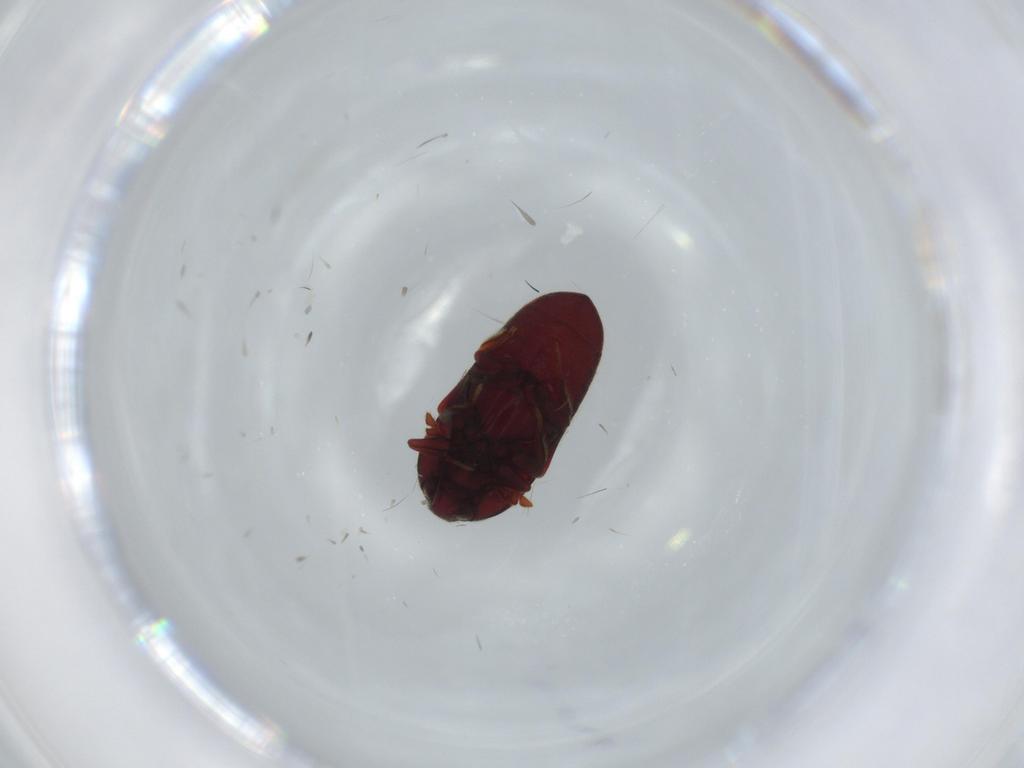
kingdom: Animalia
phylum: Arthropoda
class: Insecta
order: Coleoptera
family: Throscidae
